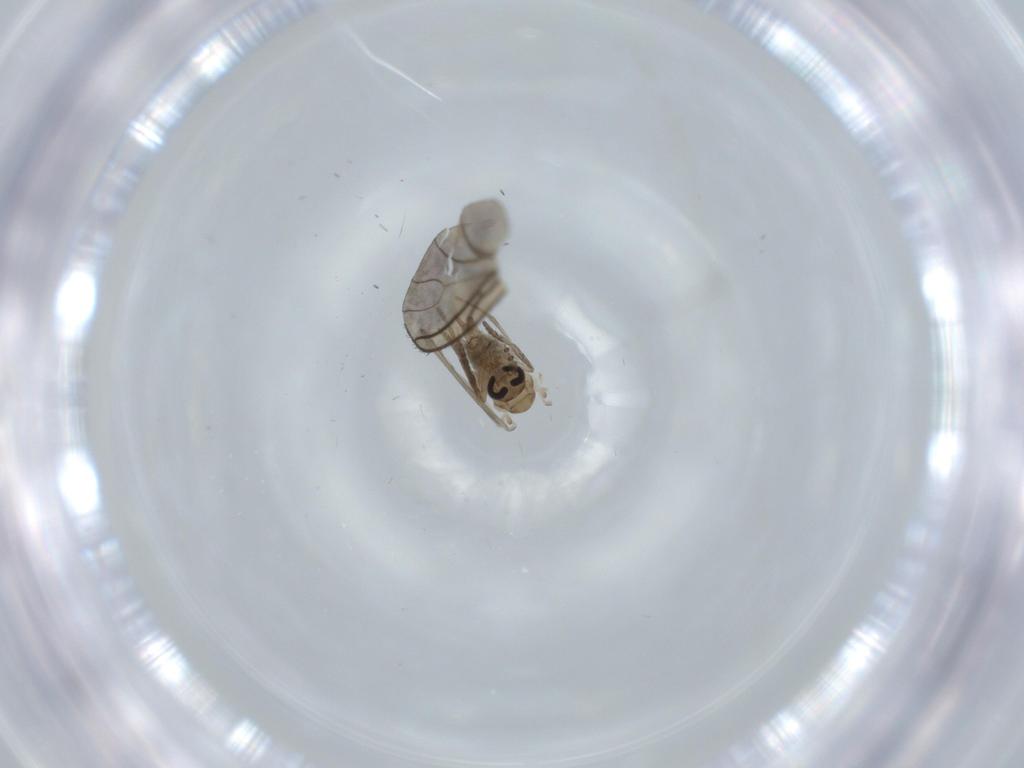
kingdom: Animalia
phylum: Arthropoda
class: Insecta
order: Diptera
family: Psychodidae
